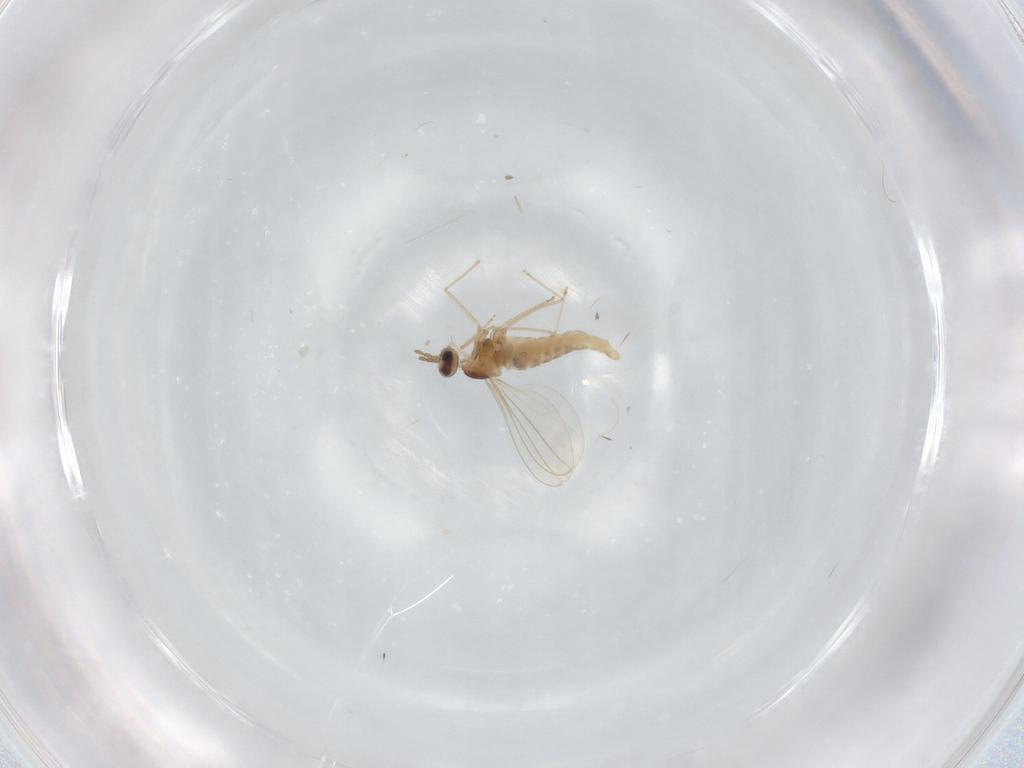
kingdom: Animalia
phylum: Arthropoda
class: Insecta
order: Diptera
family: Cecidomyiidae
